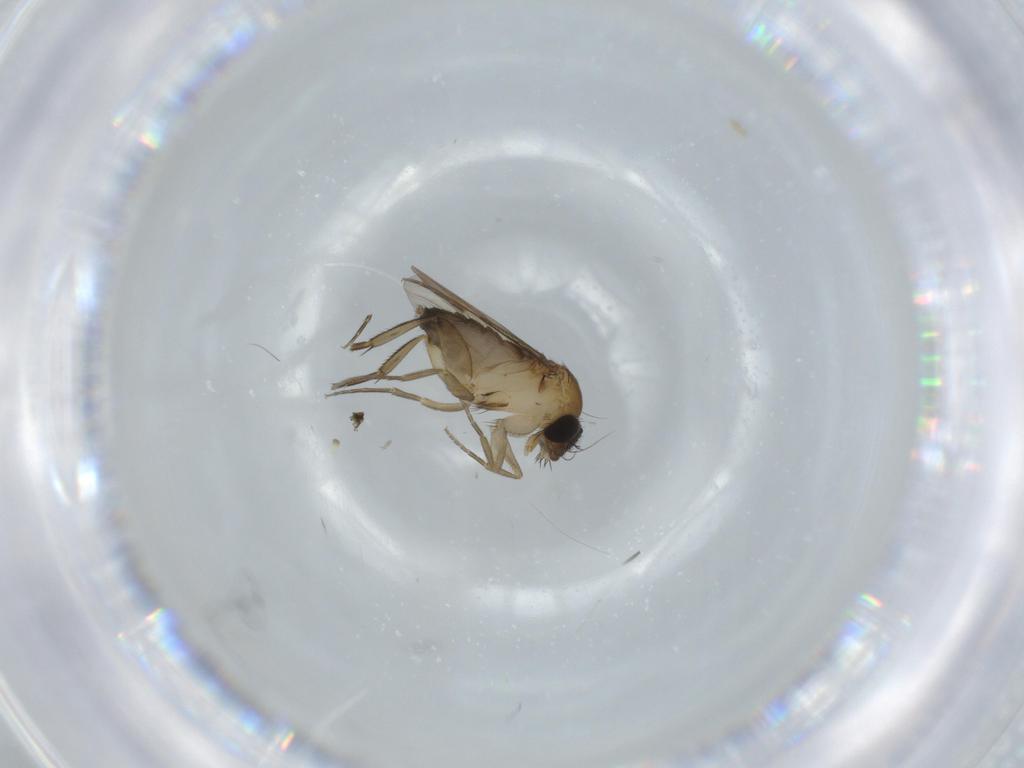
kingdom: Animalia
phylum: Arthropoda
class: Insecta
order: Diptera
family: Phoridae
